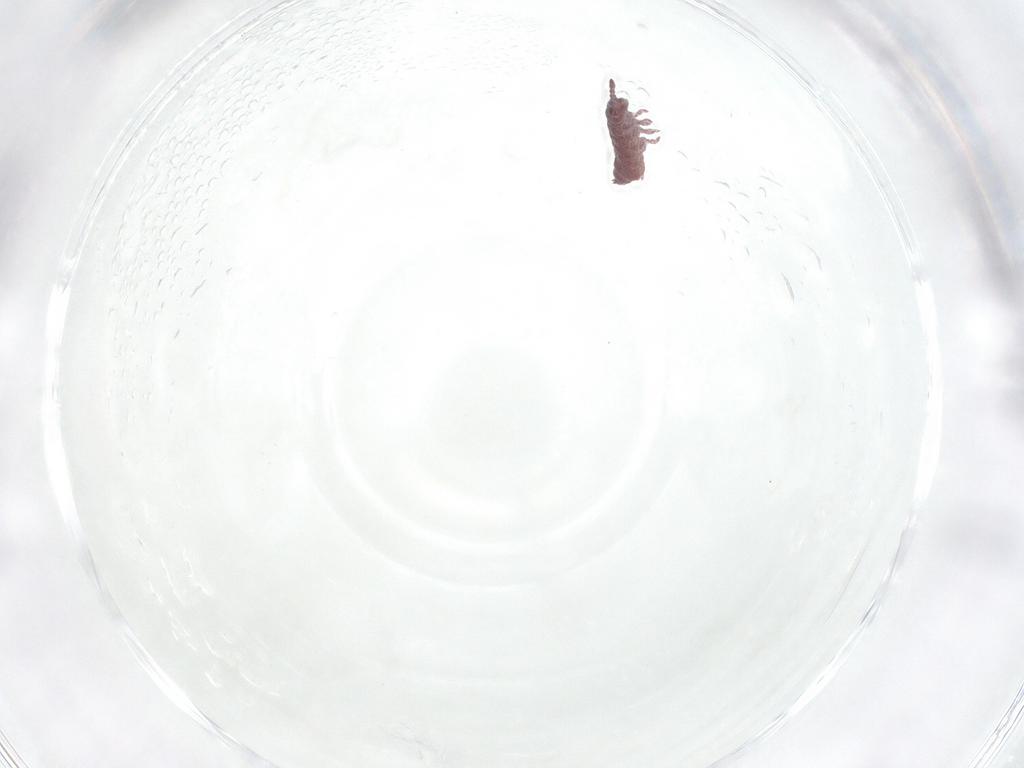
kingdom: Animalia
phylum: Arthropoda
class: Collembola
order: Poduromorpha
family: Hypogastruridae
